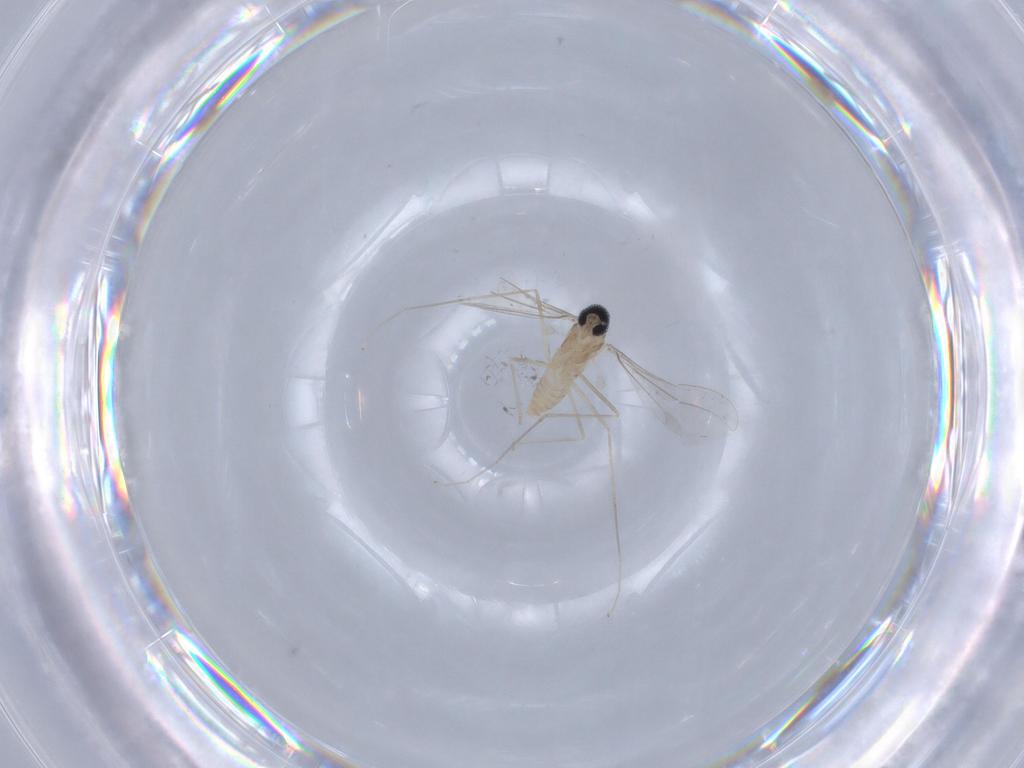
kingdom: Animalia
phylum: Arthropoda
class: Insecta
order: Diptera
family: Cecidomyiidae
